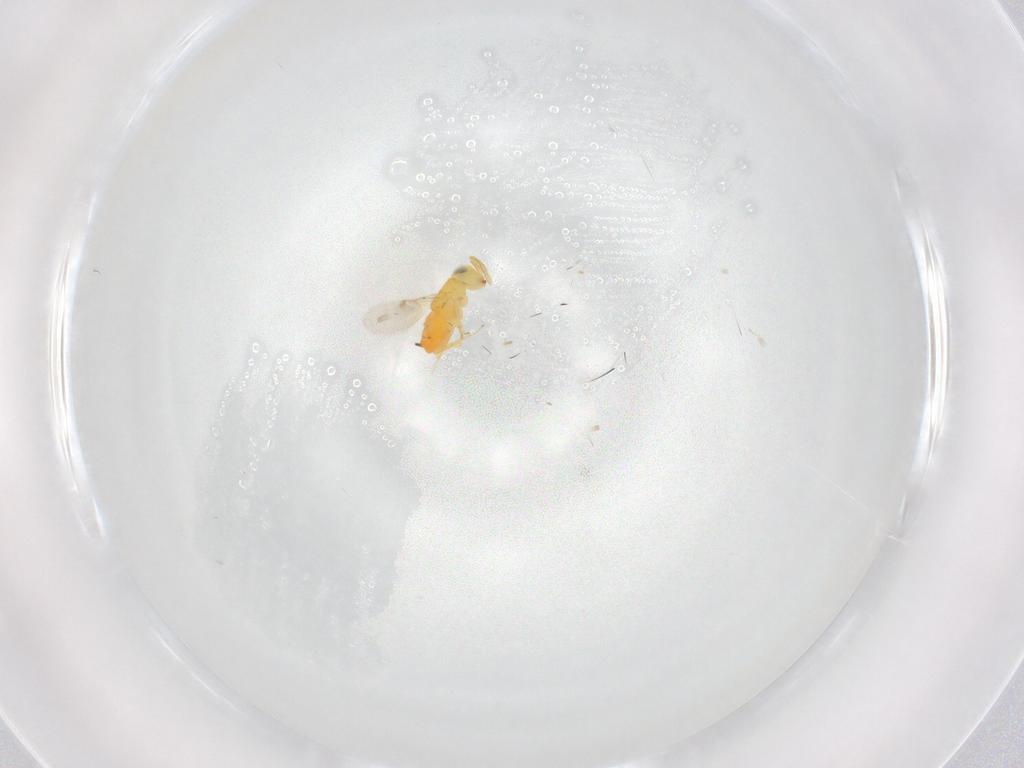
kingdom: Animalia
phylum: Arthropoda
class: Insecta
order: Hymenoptera
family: Encyrtidae
